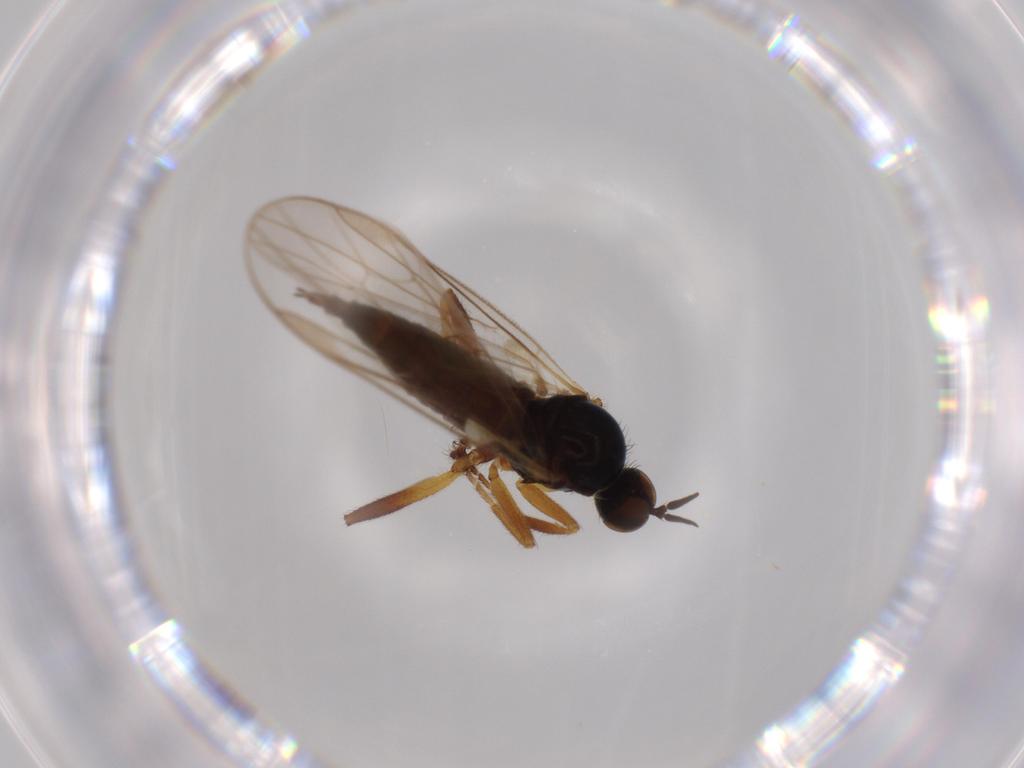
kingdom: Animalia
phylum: Arthropoda
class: Insecta
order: Diptera
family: Hybotidae
